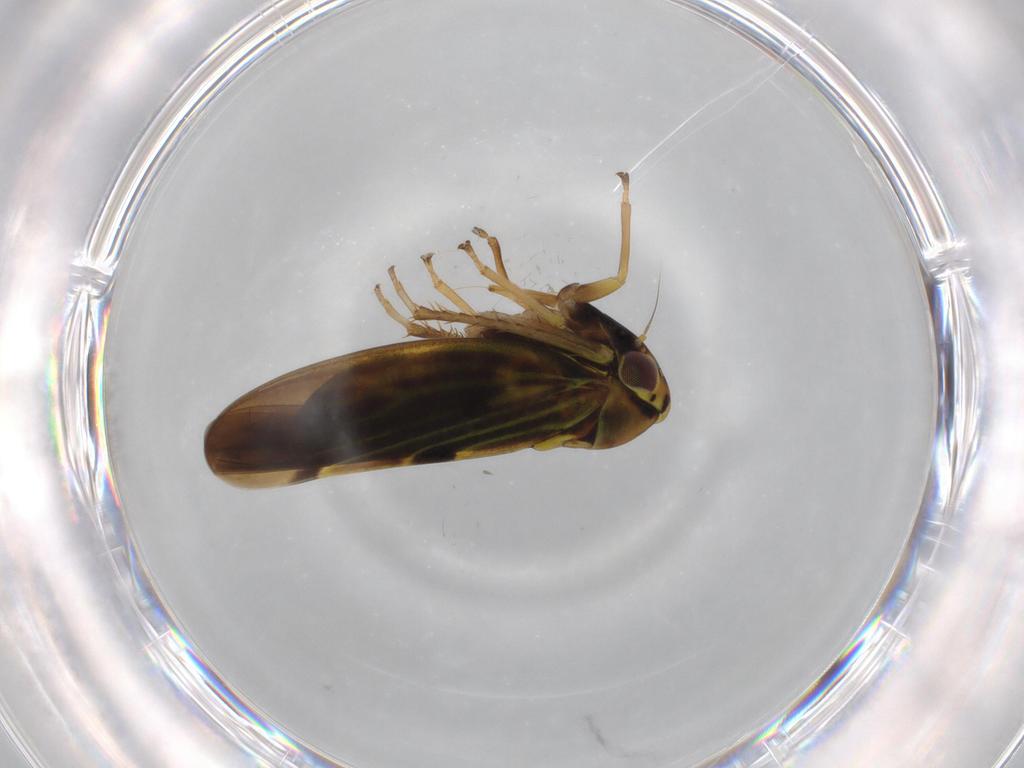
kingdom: Animalia
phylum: Arthropoda
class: Insecta
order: Hemiptera
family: Cicadellidae
